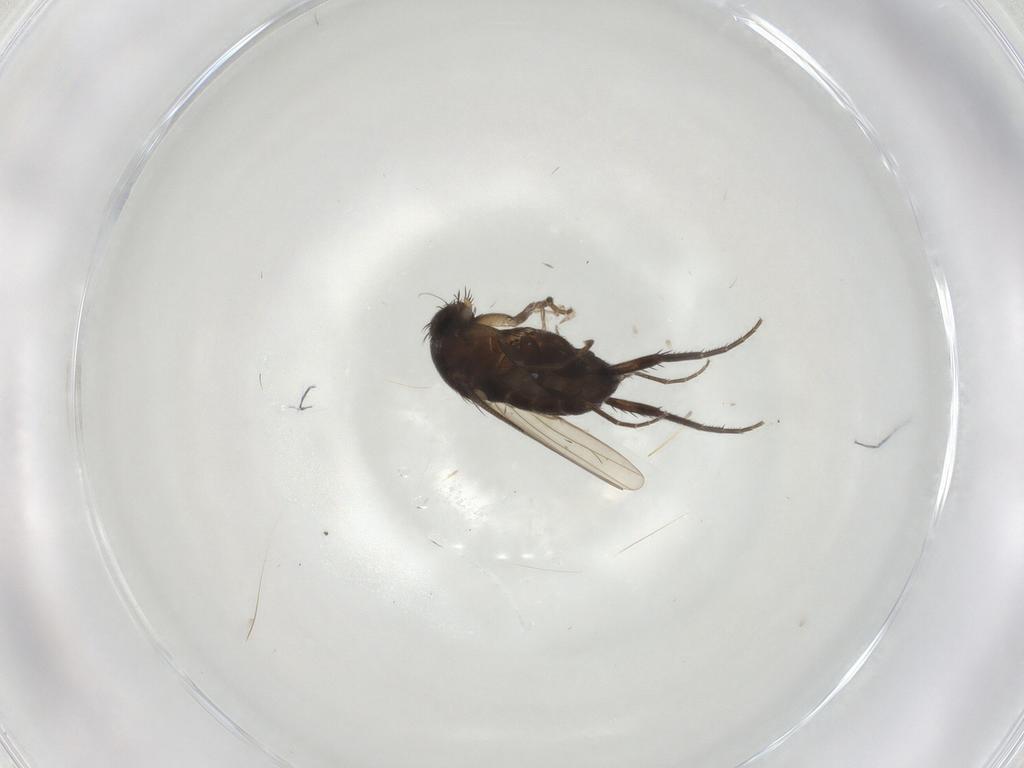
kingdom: Animalia
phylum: Arthropoda
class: Insecta
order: Diptera
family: Phoridae
